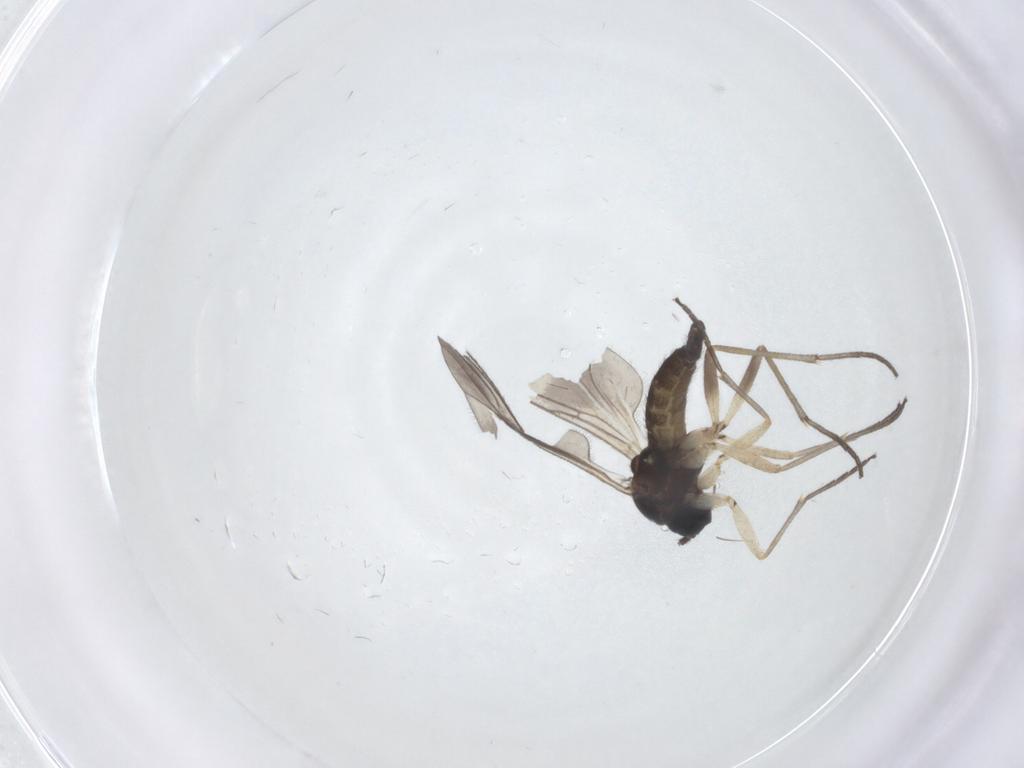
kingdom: Animalia
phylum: Arthropoda
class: Insecta
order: Diptera
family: Sciaridae
